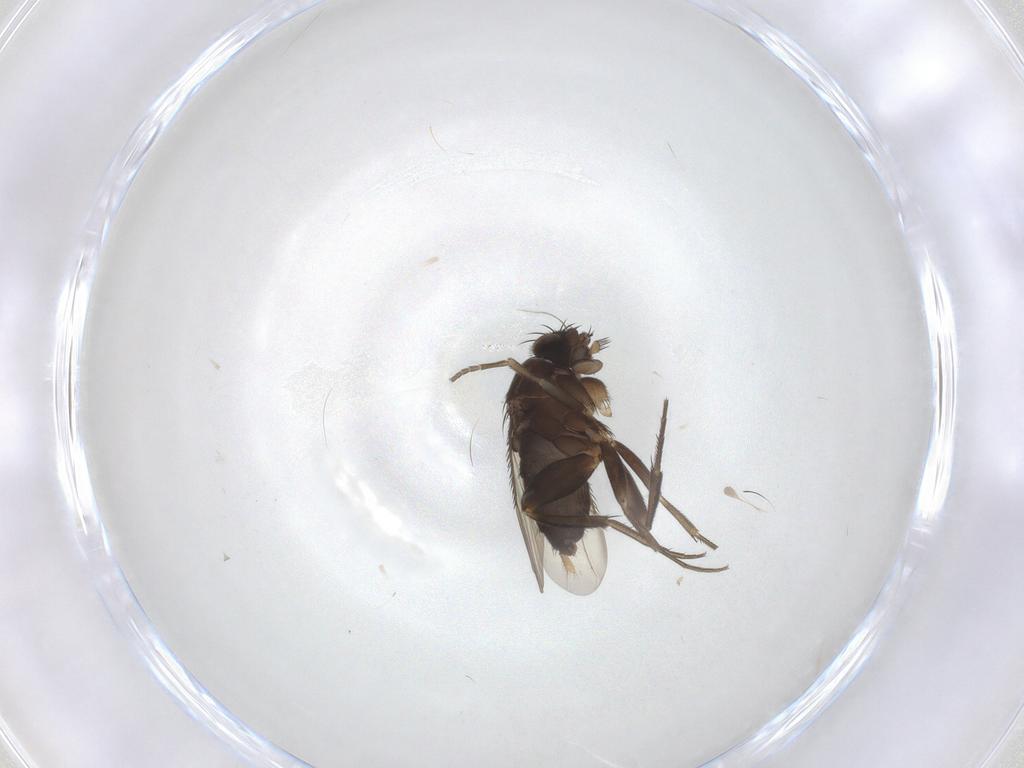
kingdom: Animalia
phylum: Arthropoda
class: Insecta
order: Diptera
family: Phoridae
